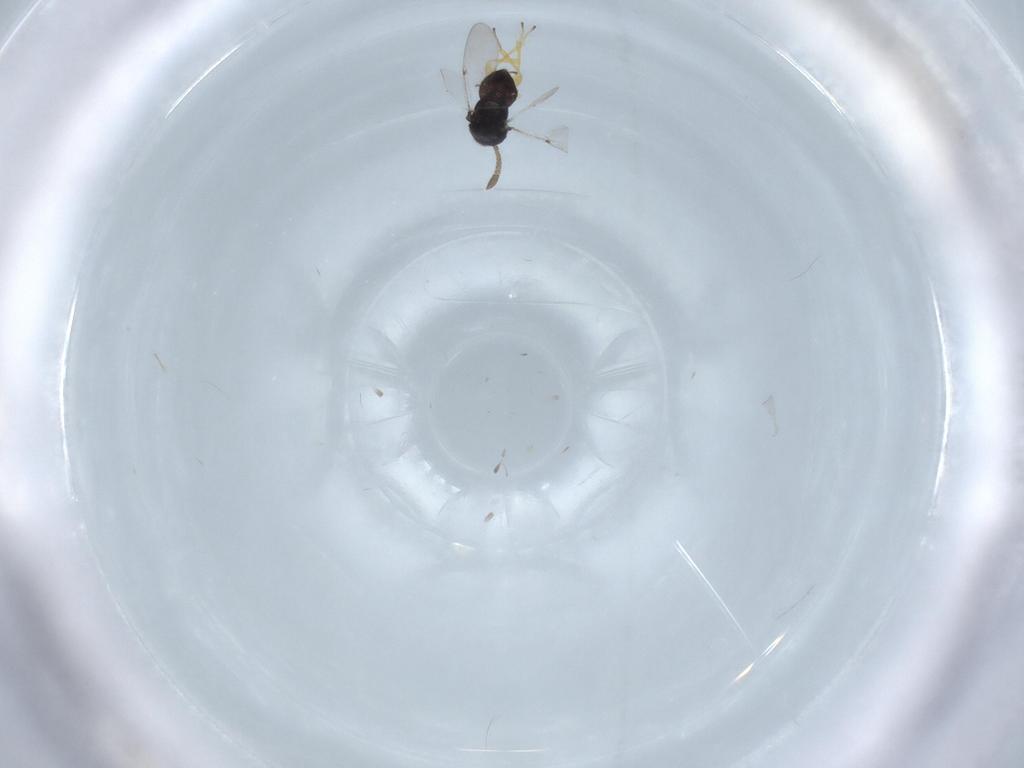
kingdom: Animalia
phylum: Arthropoda
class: Insecta
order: Hymenoptera
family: Encyrtidae
